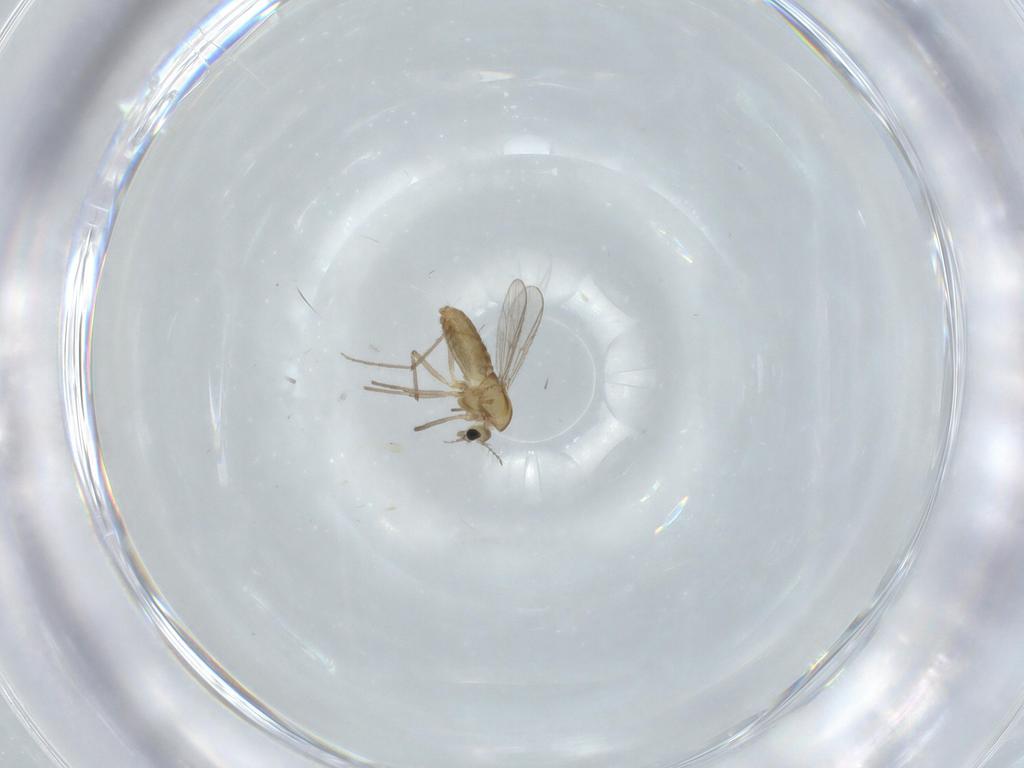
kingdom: Animalia
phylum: Arthropoda
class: Insecta
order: Diptera
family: Chironomidae
